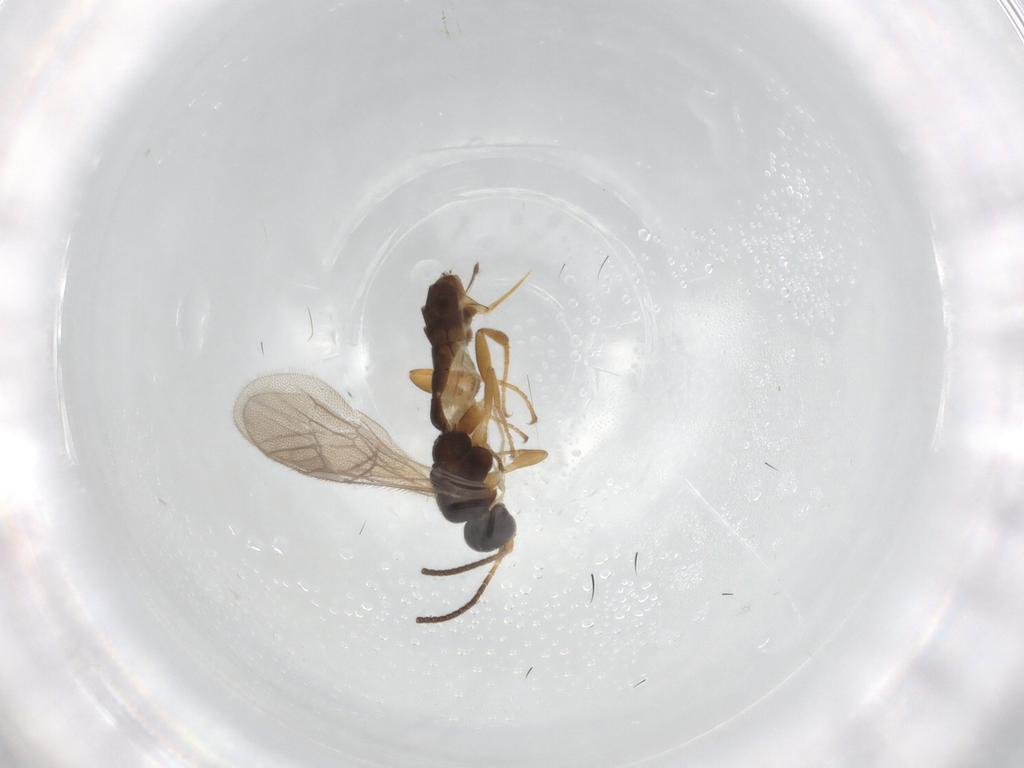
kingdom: Animalia
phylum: Arthropoda
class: Insecta
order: Hymenoptera
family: Ichneumonidae
